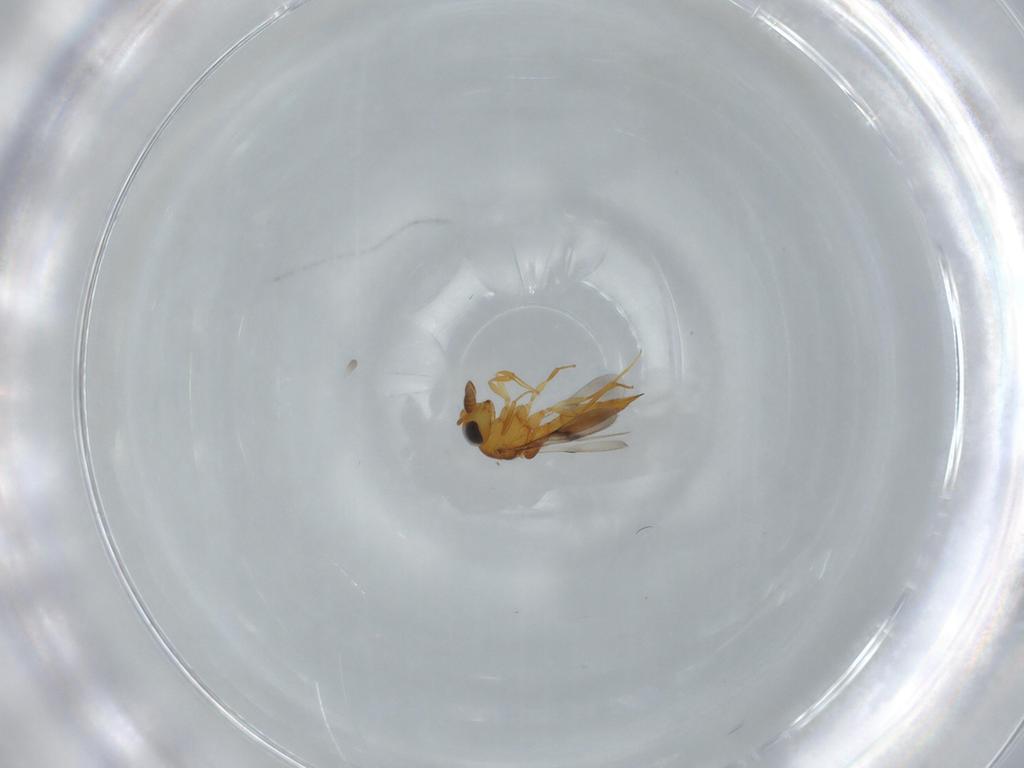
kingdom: Animalia
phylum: Arthropoda
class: Insecta
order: Hymenoptera
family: Scelionidae
